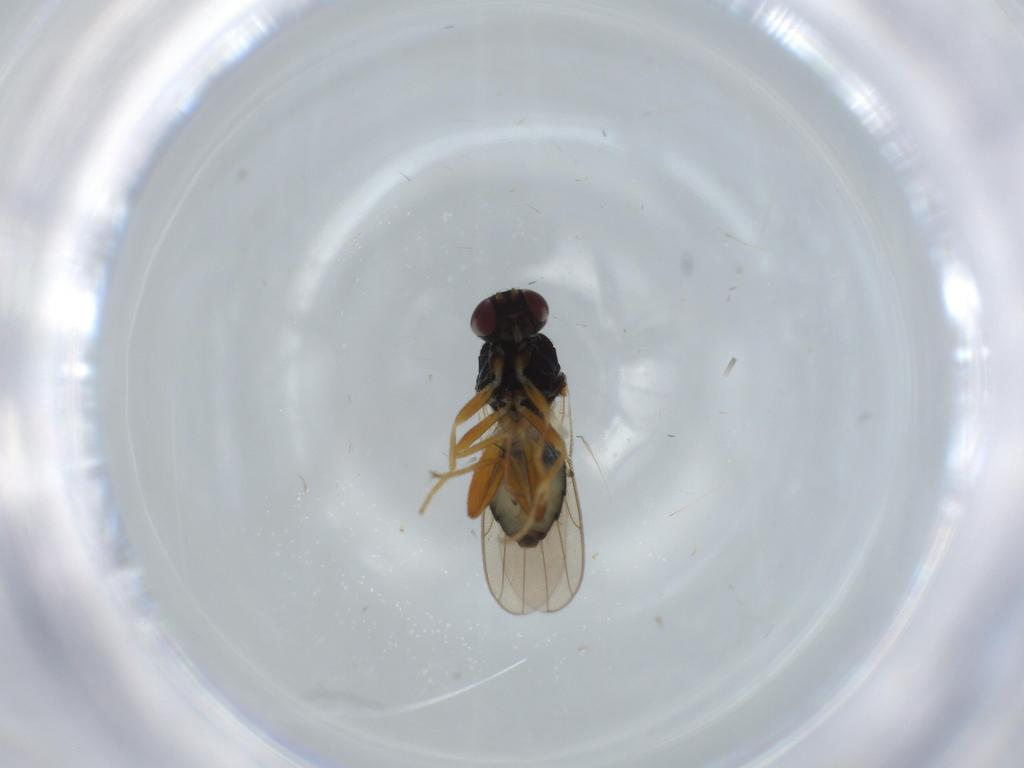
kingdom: Animalia
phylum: Arthropoda
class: Insecta
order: Diptera
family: Chloropidae
